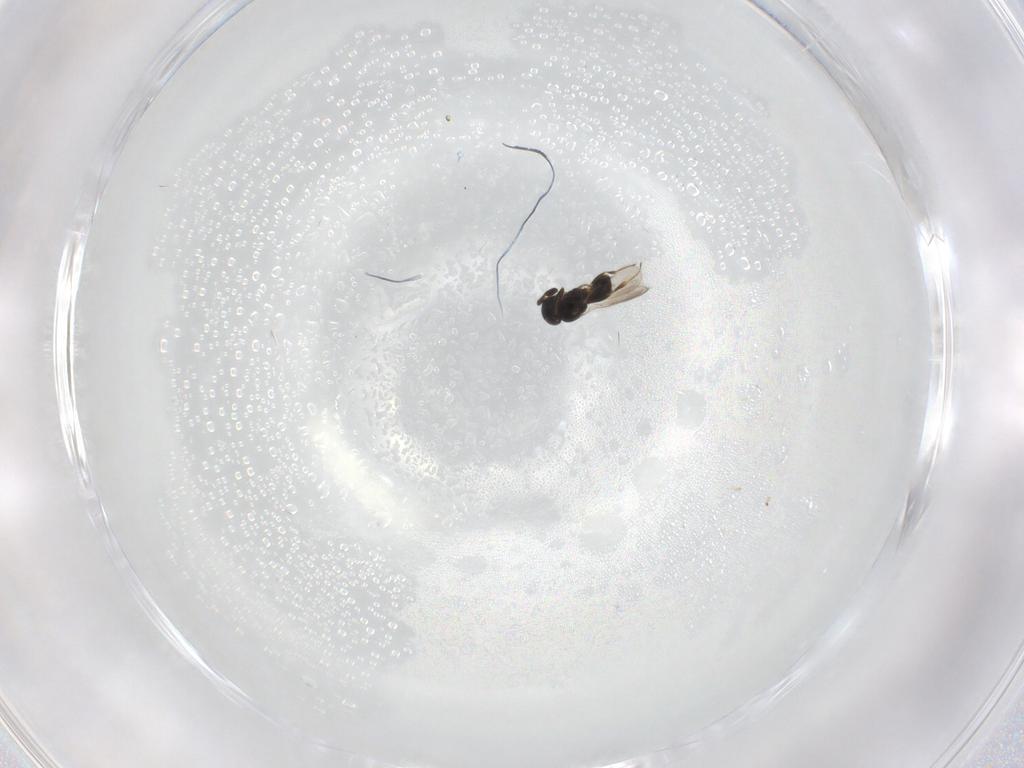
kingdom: Animalia
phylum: Arthropoda
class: Insecta
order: Hymenoptera
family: Scelionidae
